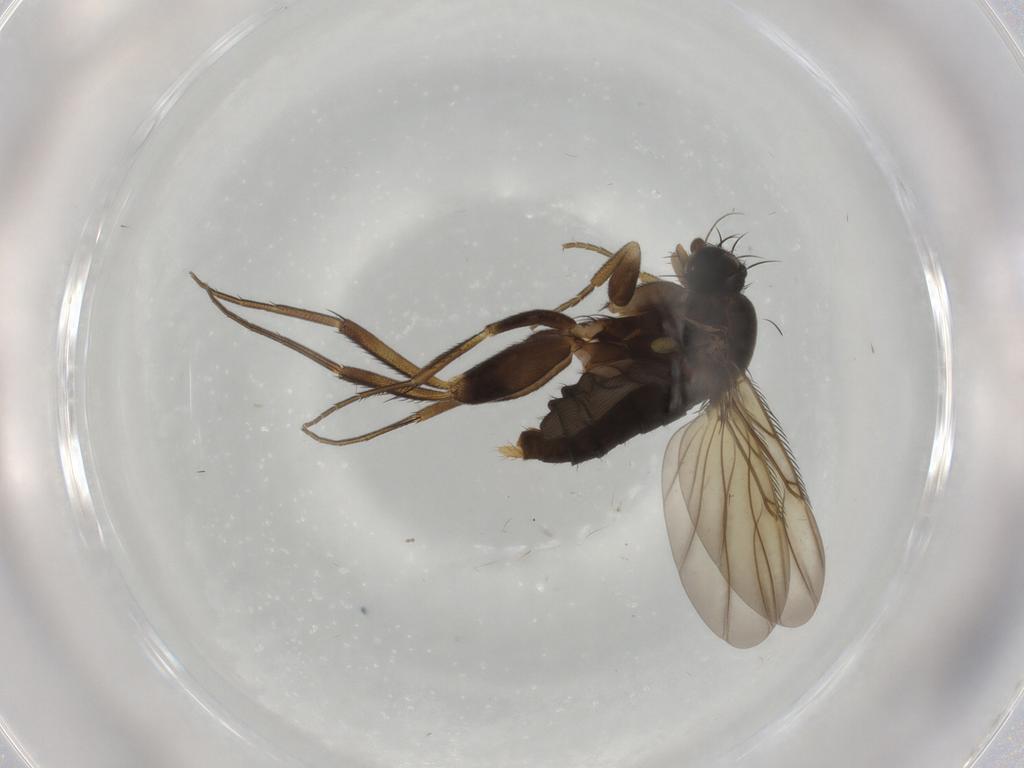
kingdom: Animalia
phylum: Arthropoda
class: Insecta
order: Diptera
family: Phoridae
